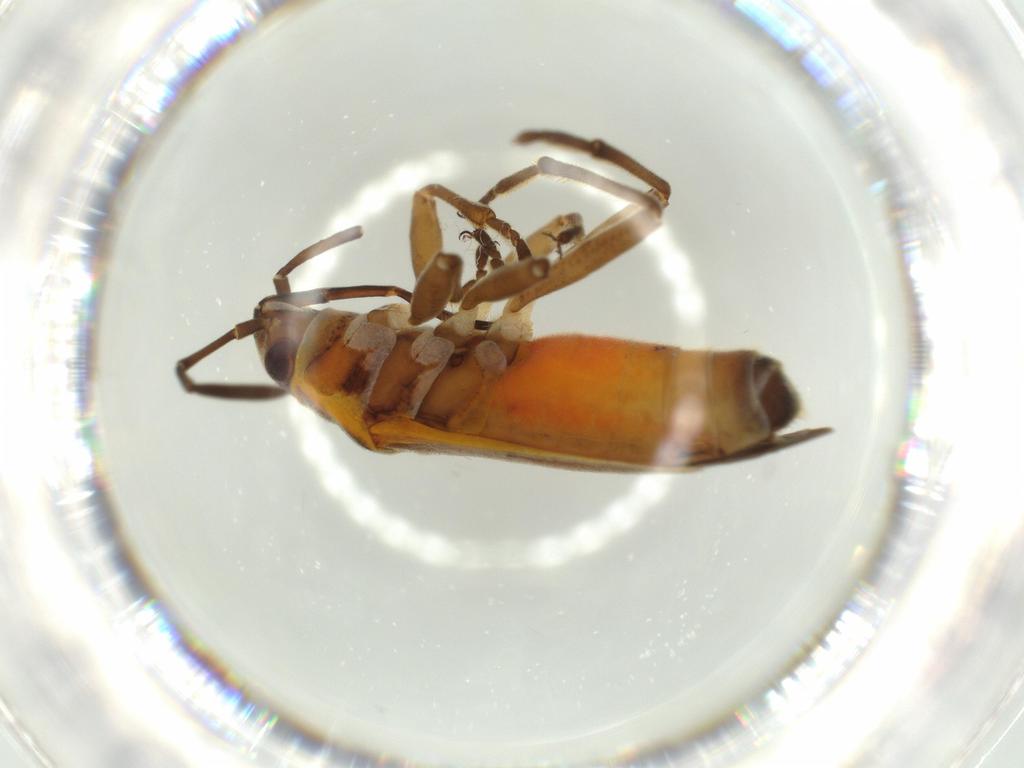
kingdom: Animalia
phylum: Arthropoda
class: Insecta
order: Hemiptera
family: Lygaeidae
